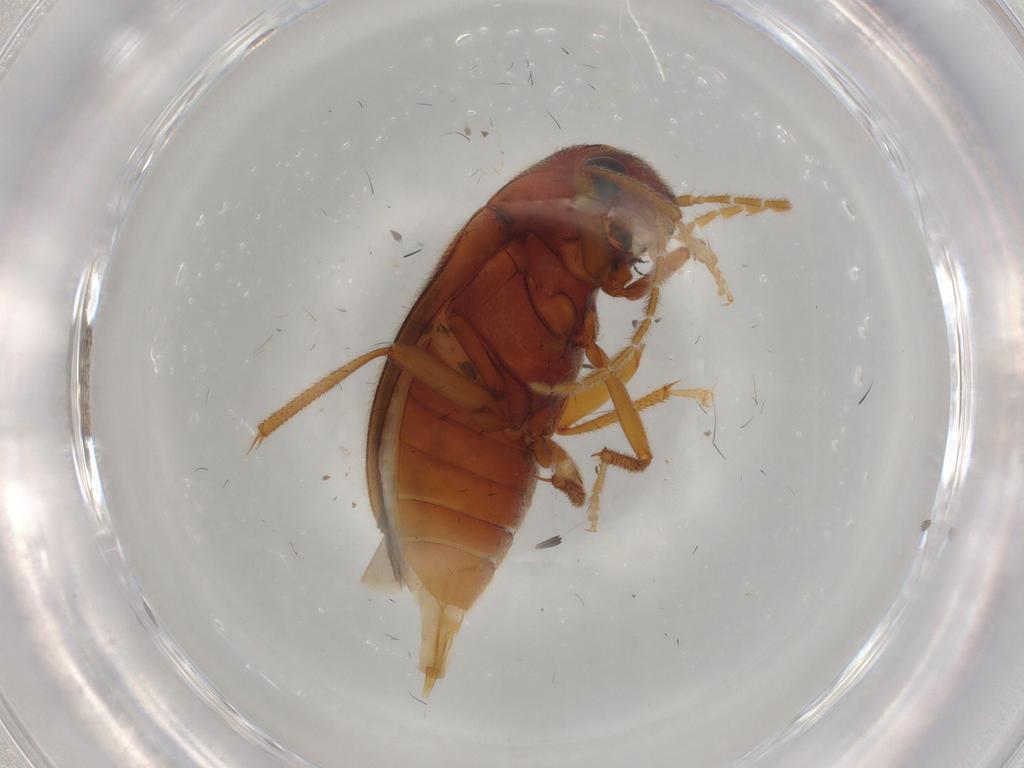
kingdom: Animalia
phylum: Arthropoda
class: Insecta
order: Coleoptera
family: Ptilodactylidae
